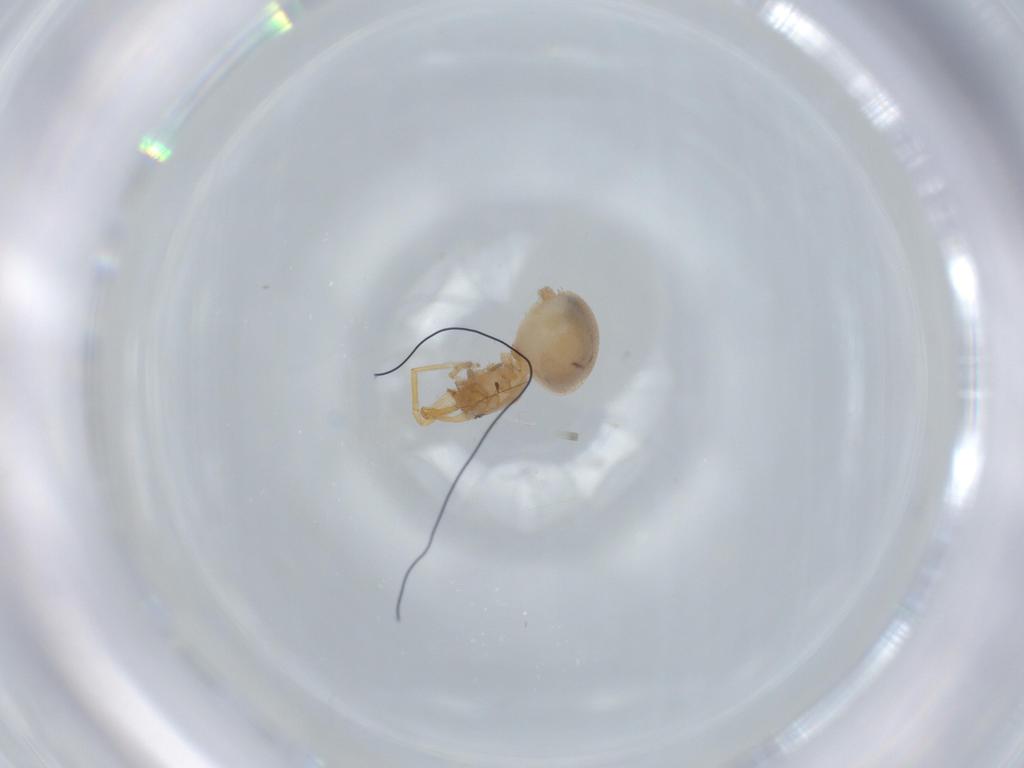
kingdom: Animalia
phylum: Arthropoda
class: Arachnida
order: Araneae
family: Oonopidae
